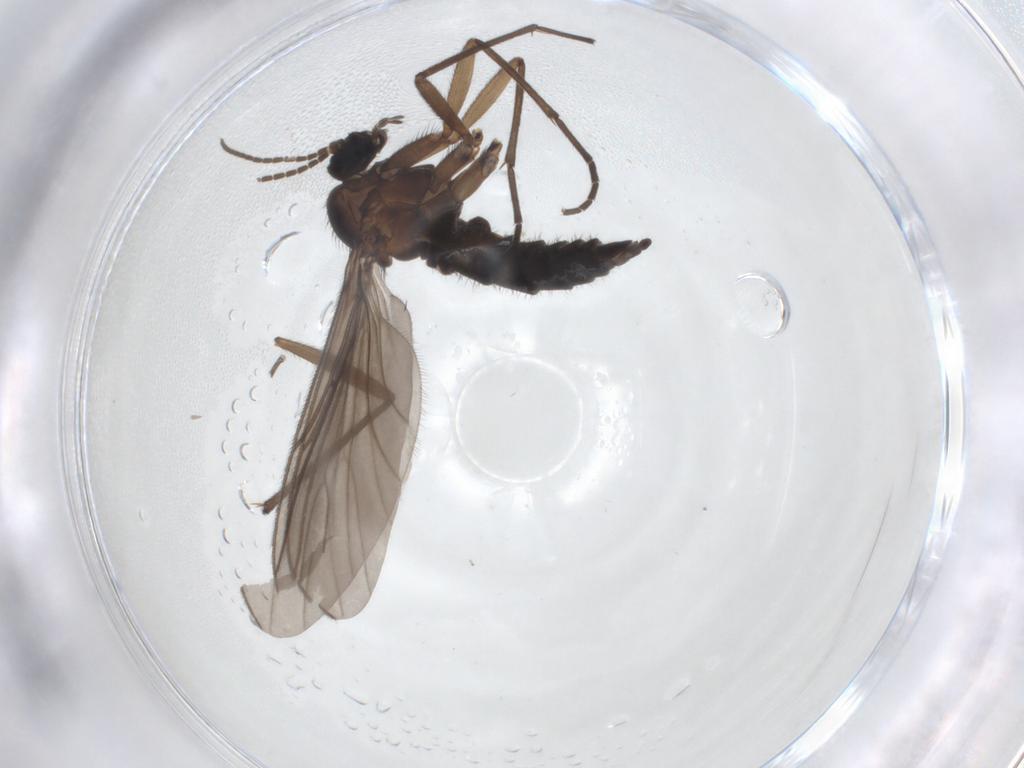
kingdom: Animalia
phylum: Arthropoda
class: Insecta
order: Diptera
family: Sciaridae
